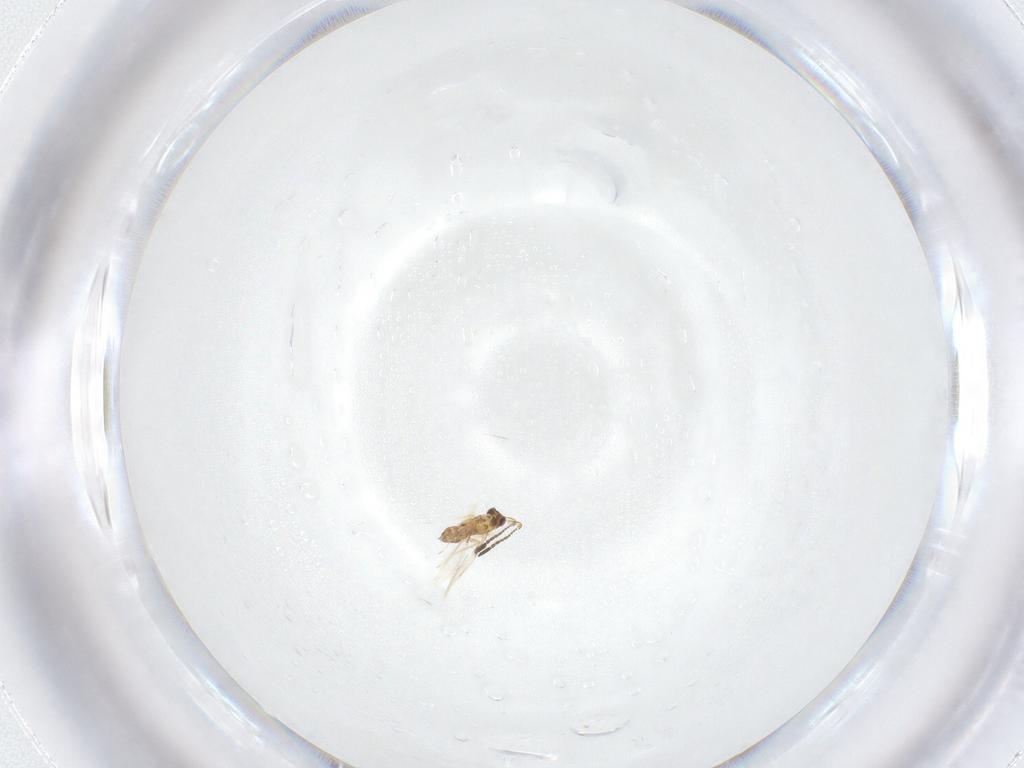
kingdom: Animalia
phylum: Arthropoda
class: Insecta
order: Hymenoptera
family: Mymaridae
